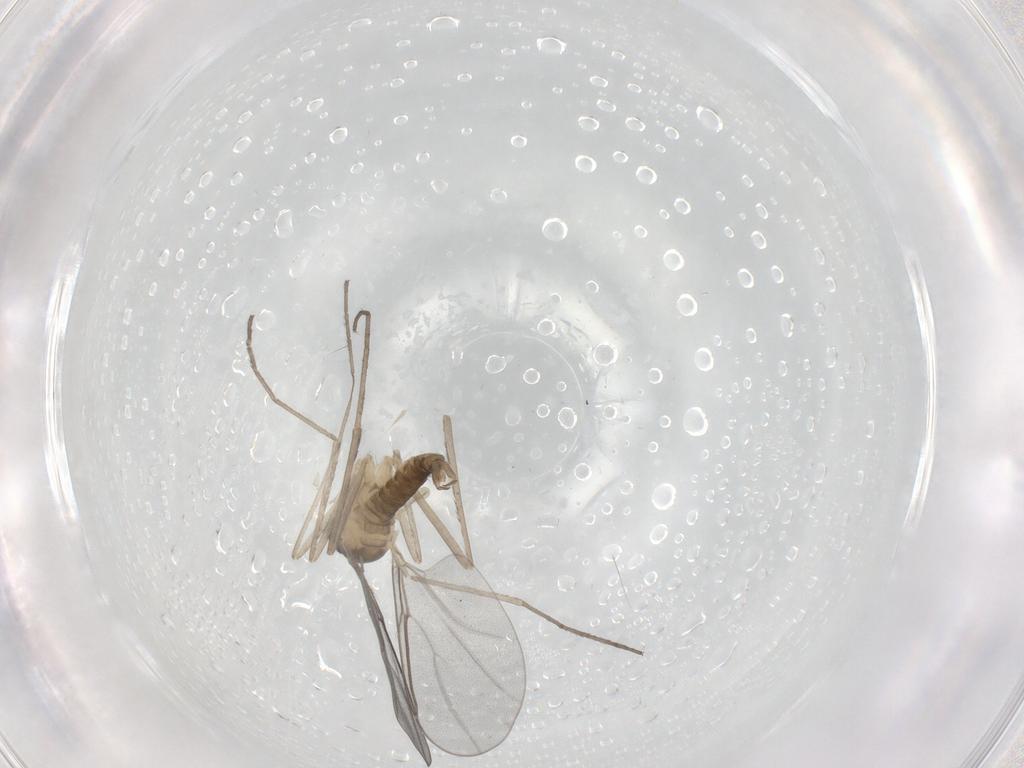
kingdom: Animalia
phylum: Arthropoda
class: Insecta
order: Diptera
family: Cecidomyiidae
